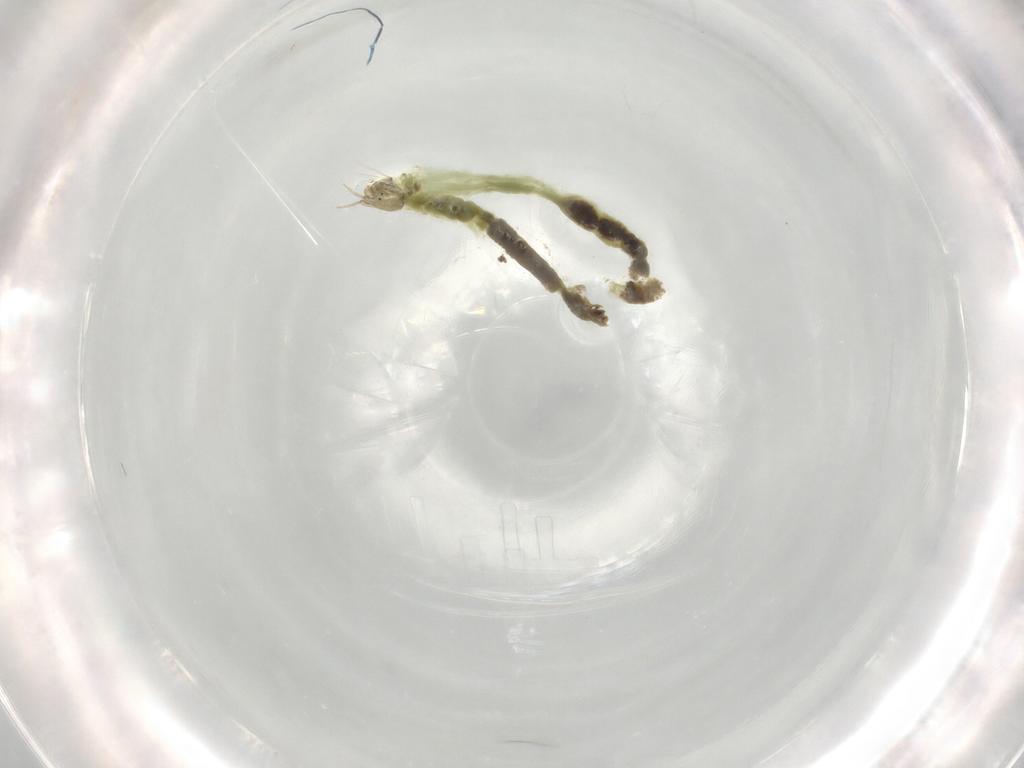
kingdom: Animalia
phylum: Arthropoda
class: Insecta
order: Diptera
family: Chironomidae
